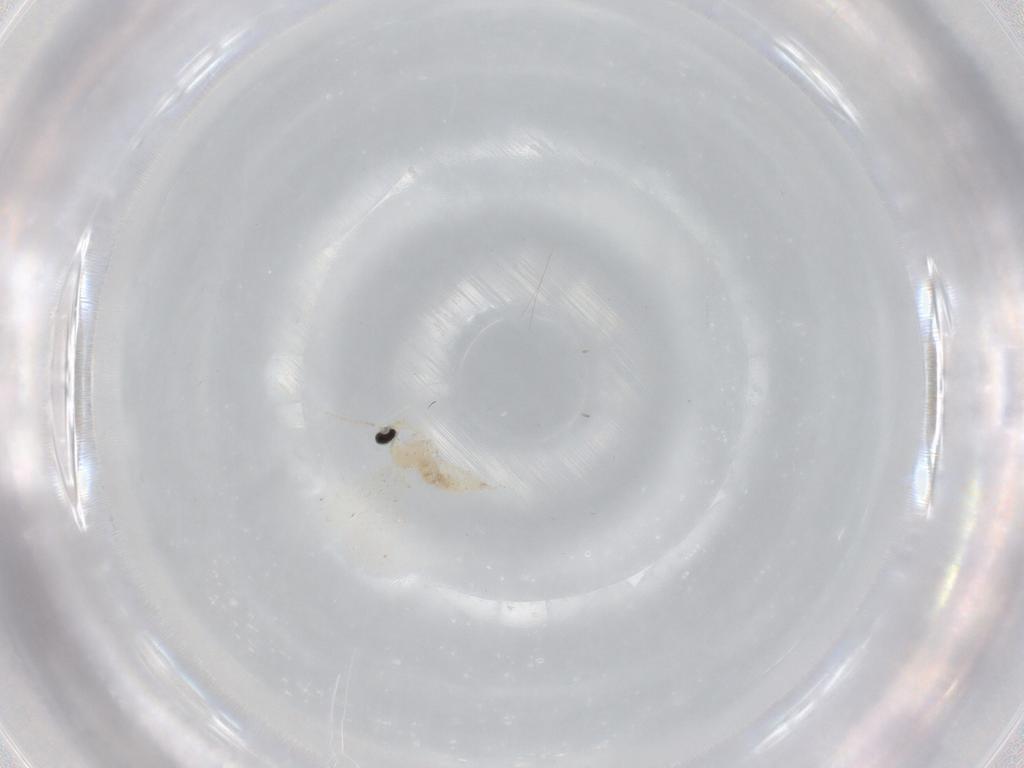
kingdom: Animalia
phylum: Arthropoda
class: Insecta
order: Diptera
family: Cecidomyiidae
